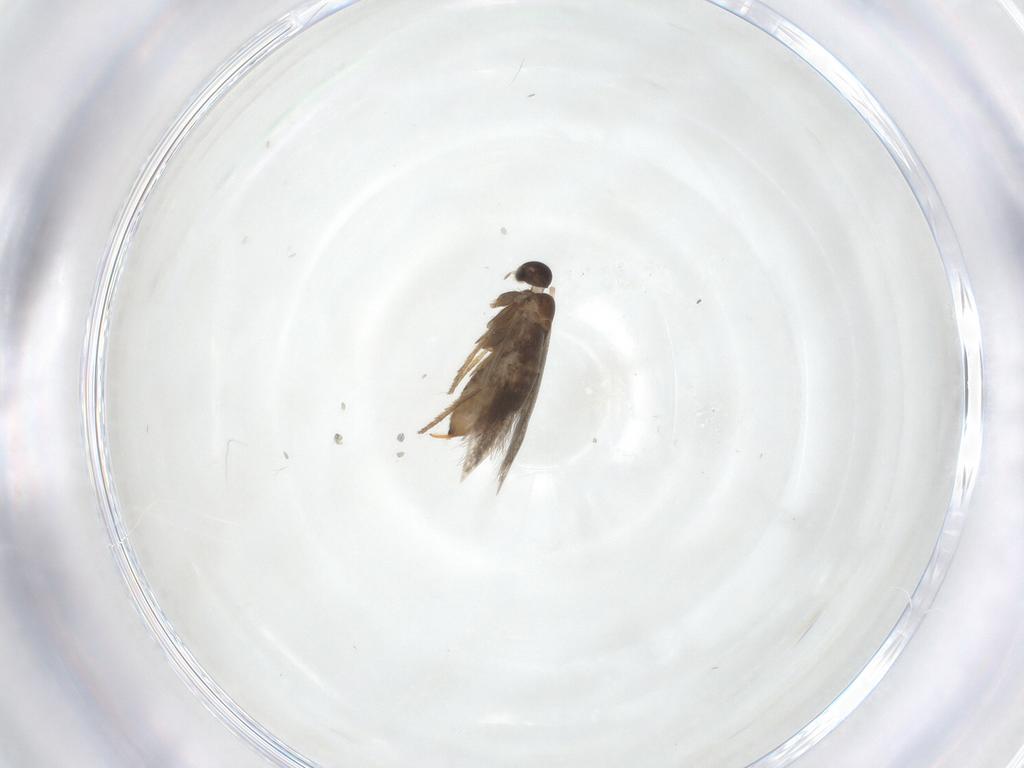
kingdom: Animalia
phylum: Arthropoda
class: Insecta
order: Lepidoptera
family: Heliozelidae
